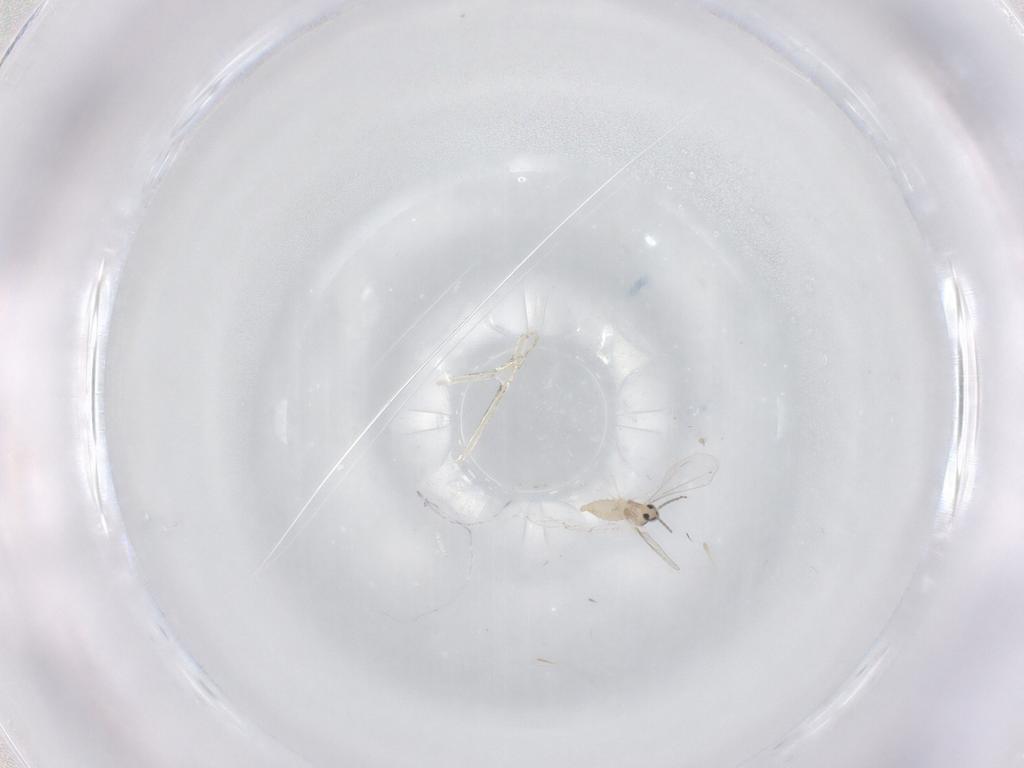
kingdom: Animalia
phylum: Arthropoda
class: Insecta
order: Diptera
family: Cecidomyiidae
